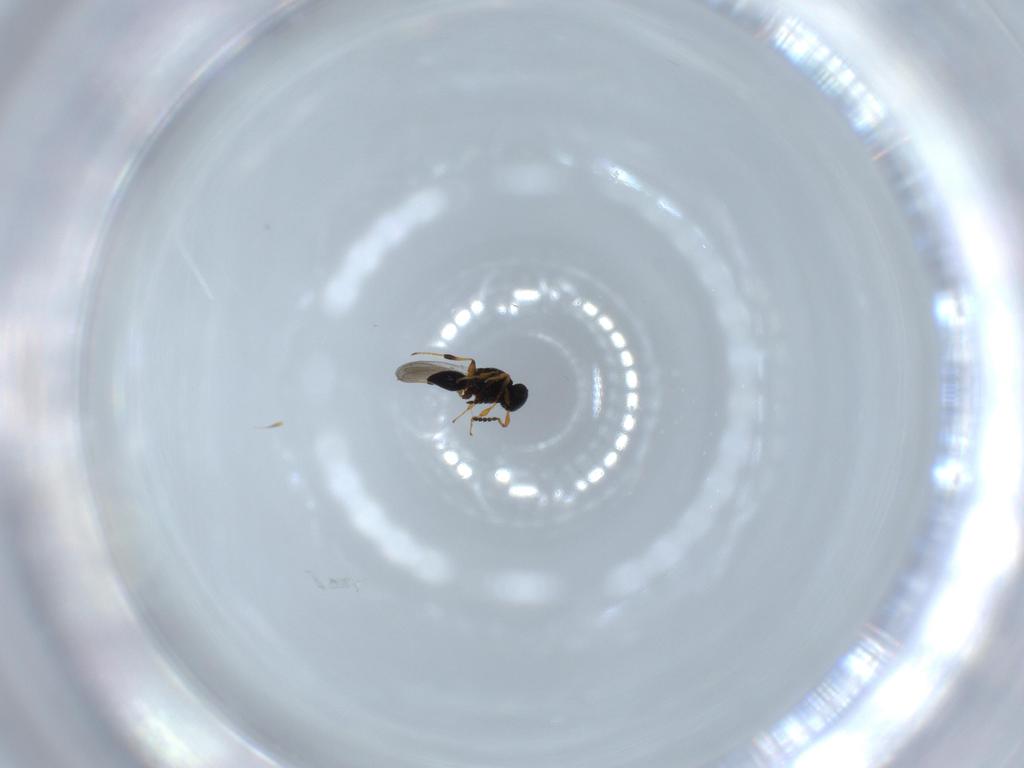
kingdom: Animalia
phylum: Arthropoda
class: Insecta
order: Hymenoptera
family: Platygastridae
